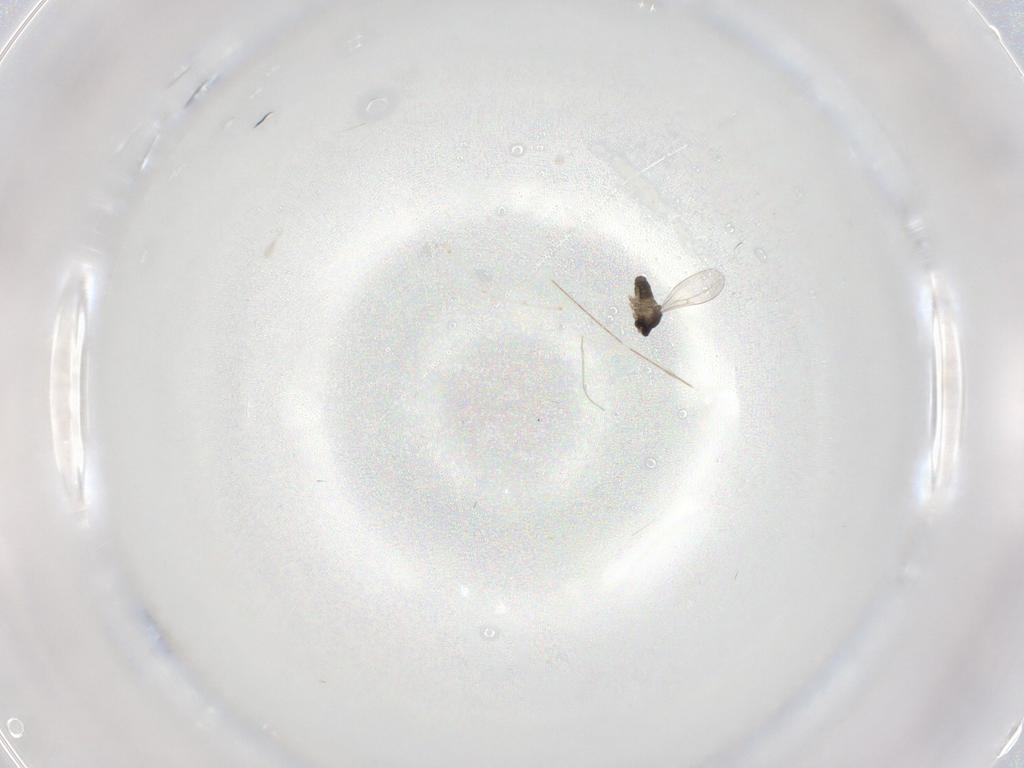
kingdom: Animalia
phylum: Arthropoda
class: Insecta
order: Diptera
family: Cecidomyiidae
